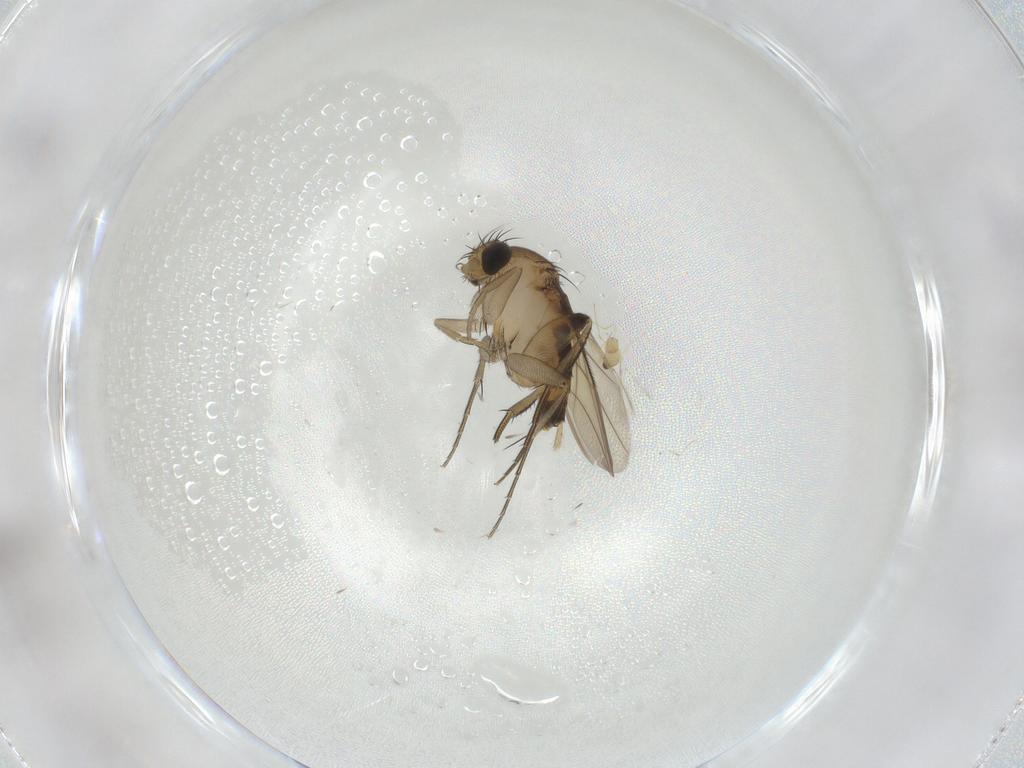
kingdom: Animalia
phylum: Arthropoda
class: Insecta
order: Diptera
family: Phoridae
